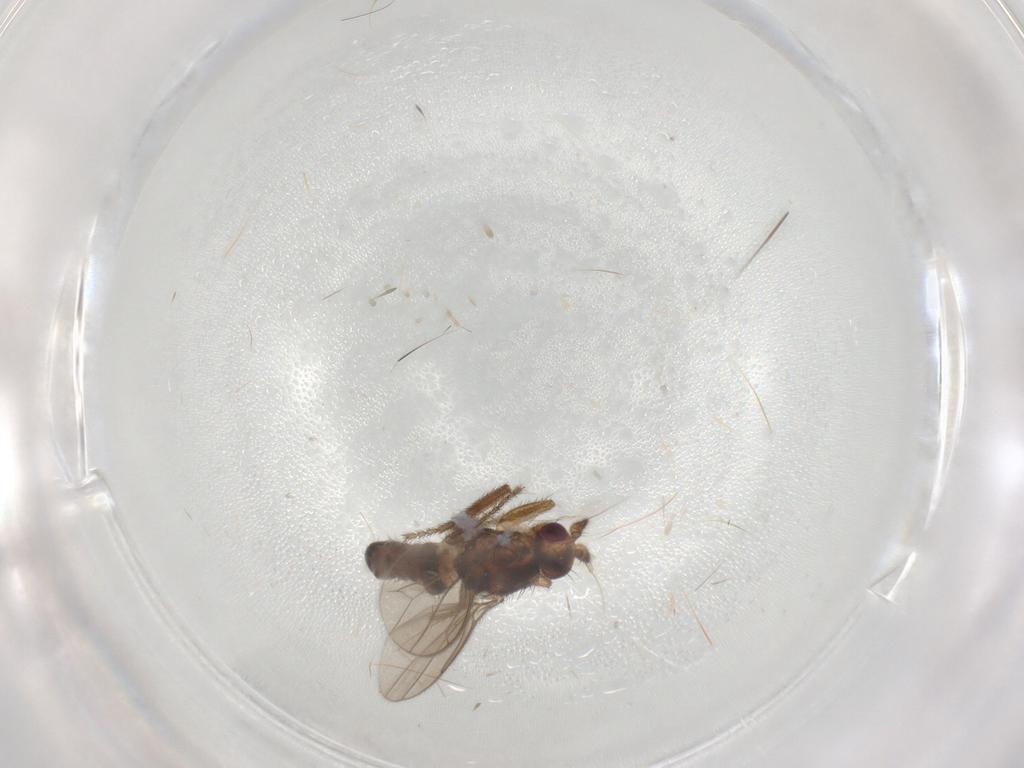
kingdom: Animalia
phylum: Arthropoda
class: Insecta
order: Diptera
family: Sphaeroceridae
